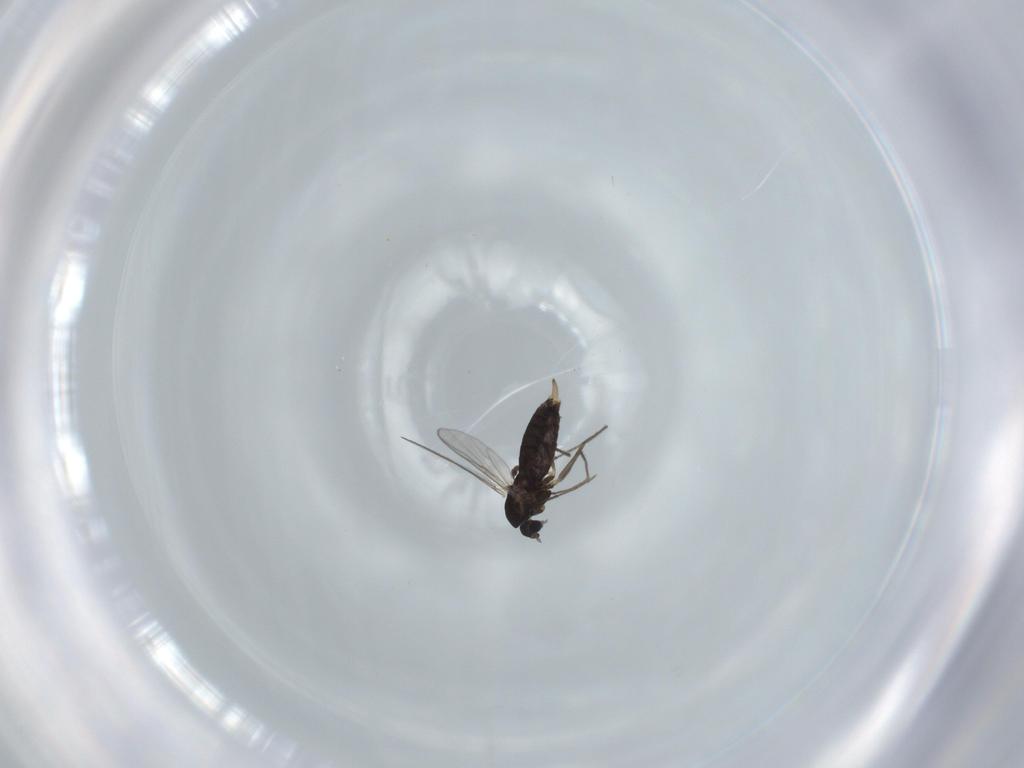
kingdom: Animalia
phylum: Arthropoda
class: Insecta
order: Diptera
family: Chironomidae
